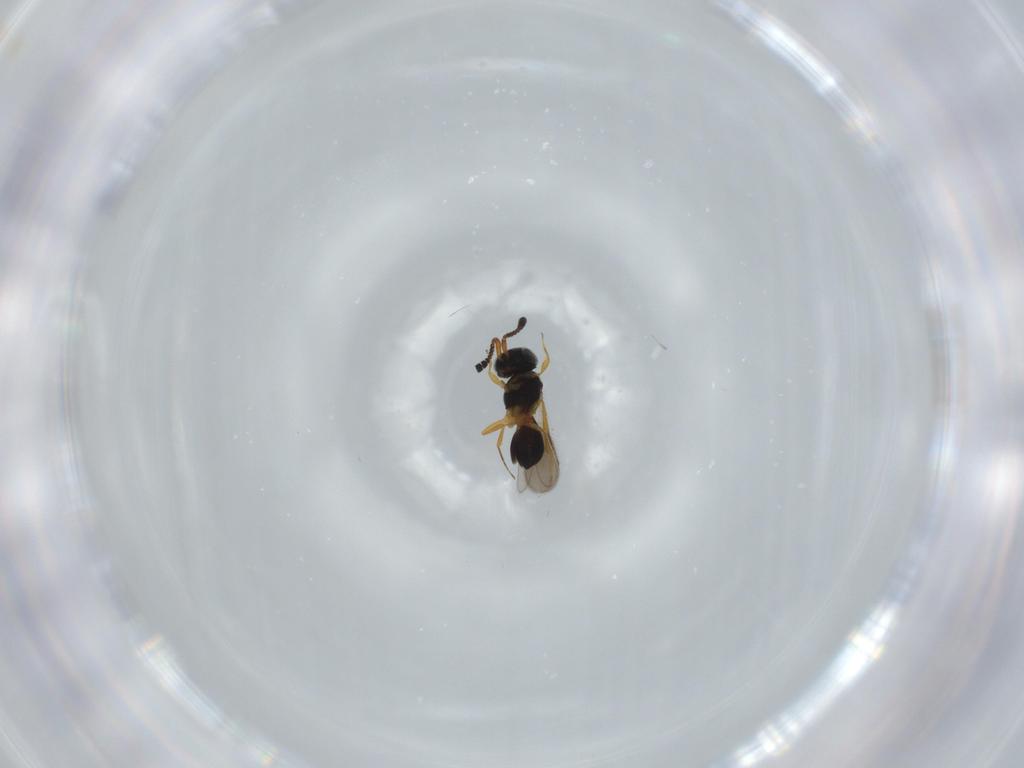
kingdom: Animalia
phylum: Arthropoda
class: Insecta
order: Hymenoptera
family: Scelionidae
